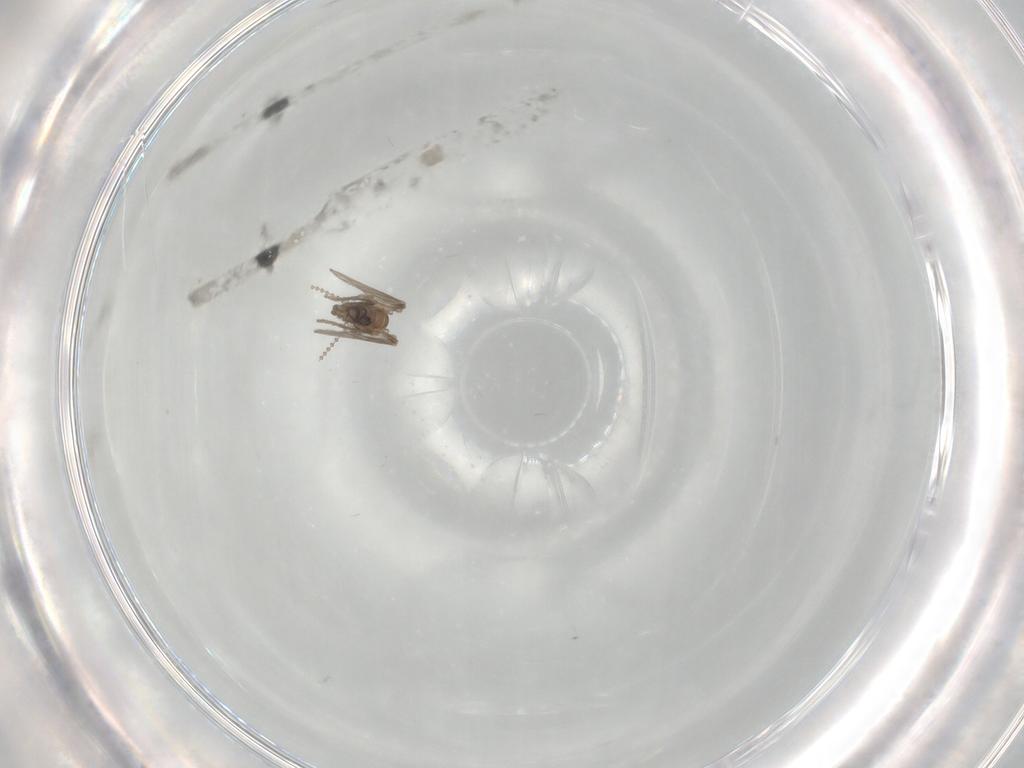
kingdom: Animalia
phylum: Arthropoda
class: Insecta
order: Diptera
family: Psychodidae
